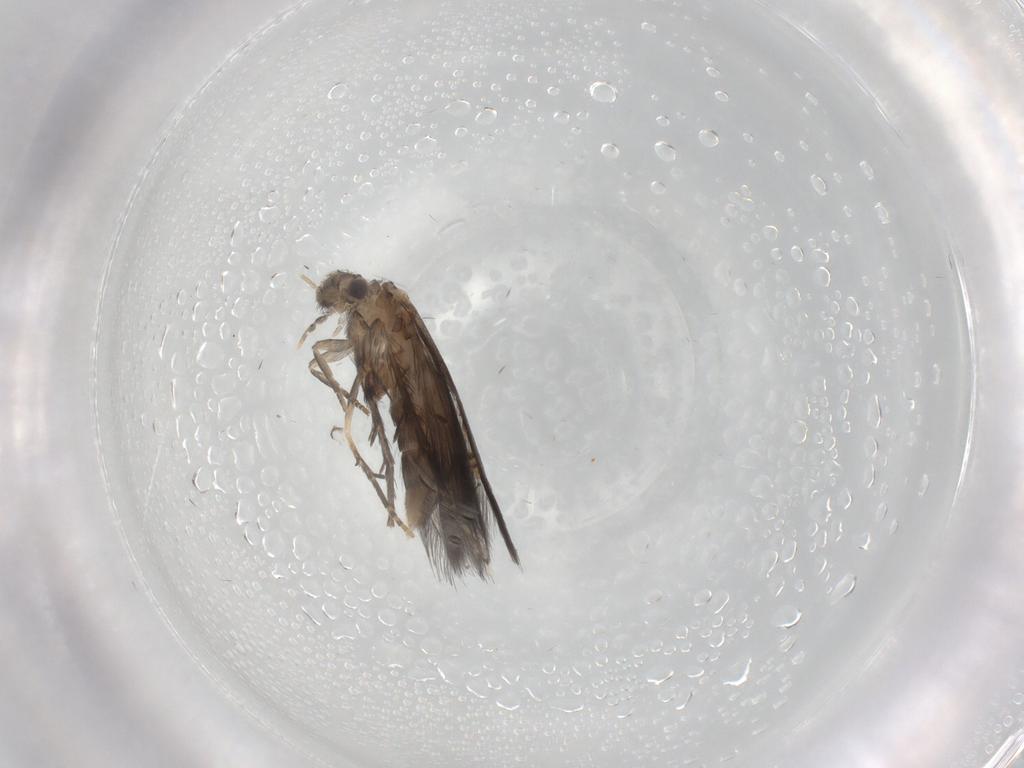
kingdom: Animalia
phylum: Arthropoda
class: Insecta
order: Trichoptera
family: Hydroptilidae
